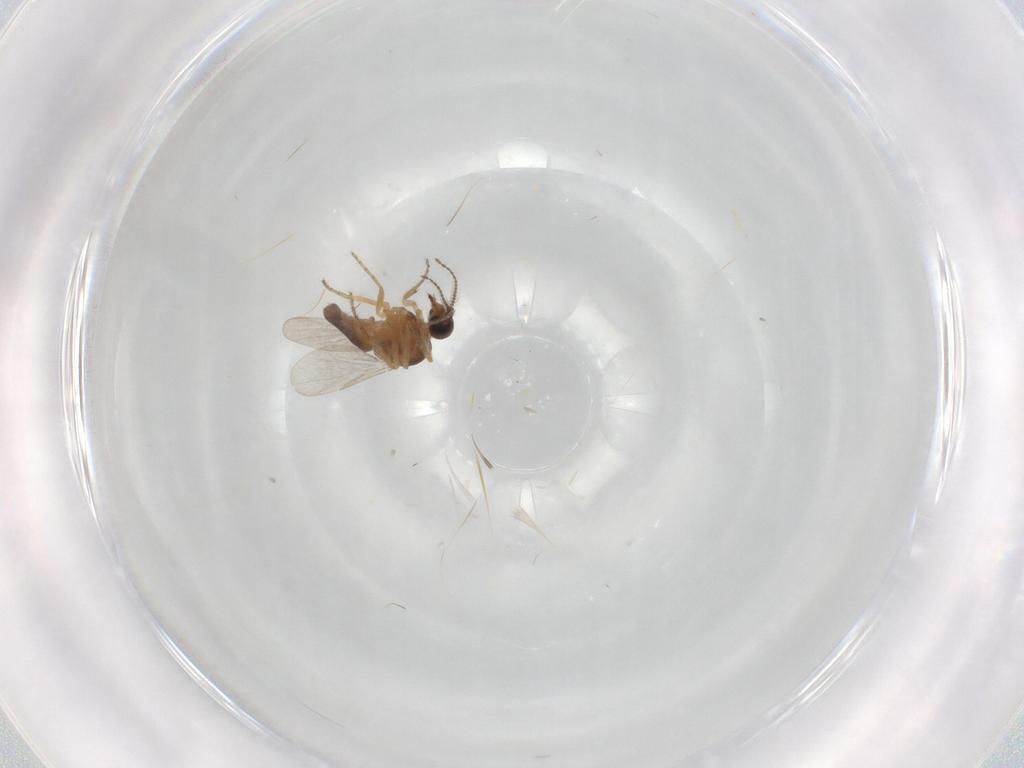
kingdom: Animalia
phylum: Arthropoda
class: Insecta
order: Diptera
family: Ceratopogonidae
